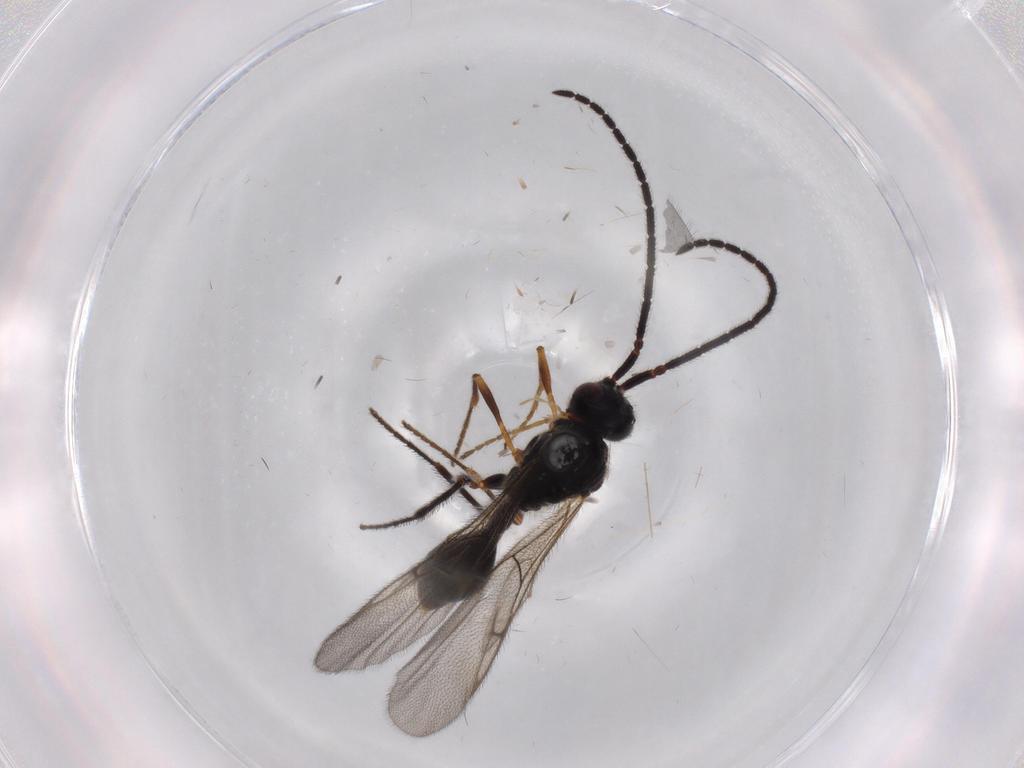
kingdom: Animalia
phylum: Arthropoda
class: Insecta
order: Hymenoptera
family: Diapriidae
